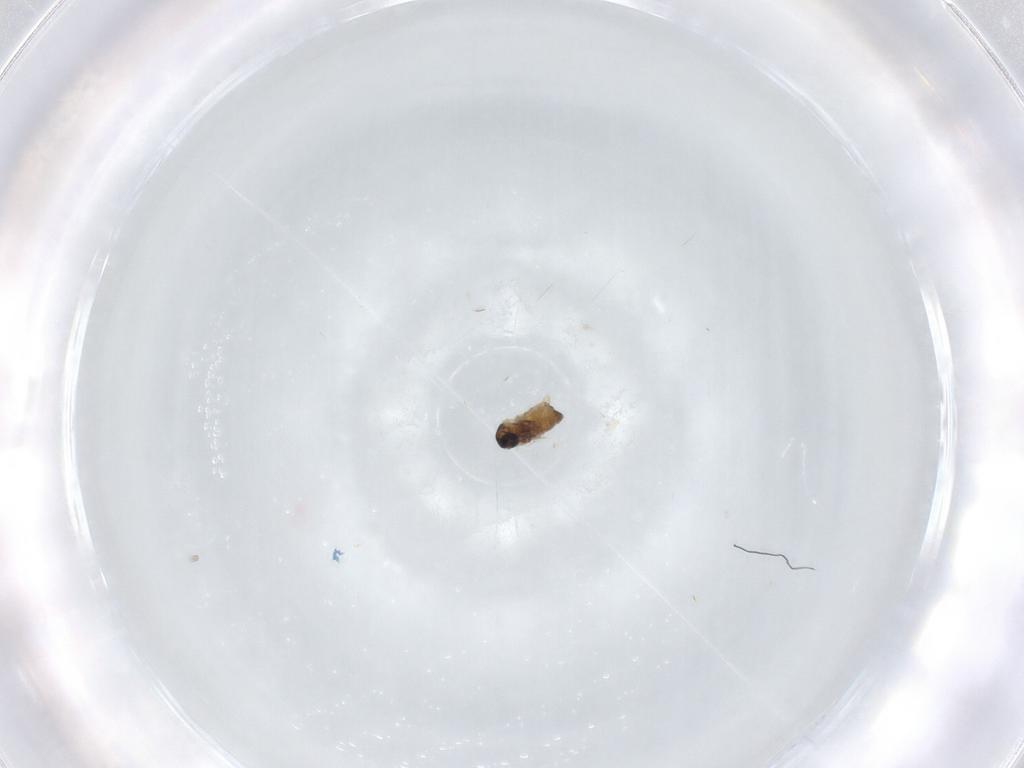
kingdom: Animalia
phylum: Arthropoda
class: Insecta
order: Diptera
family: Cecidomyiidae
